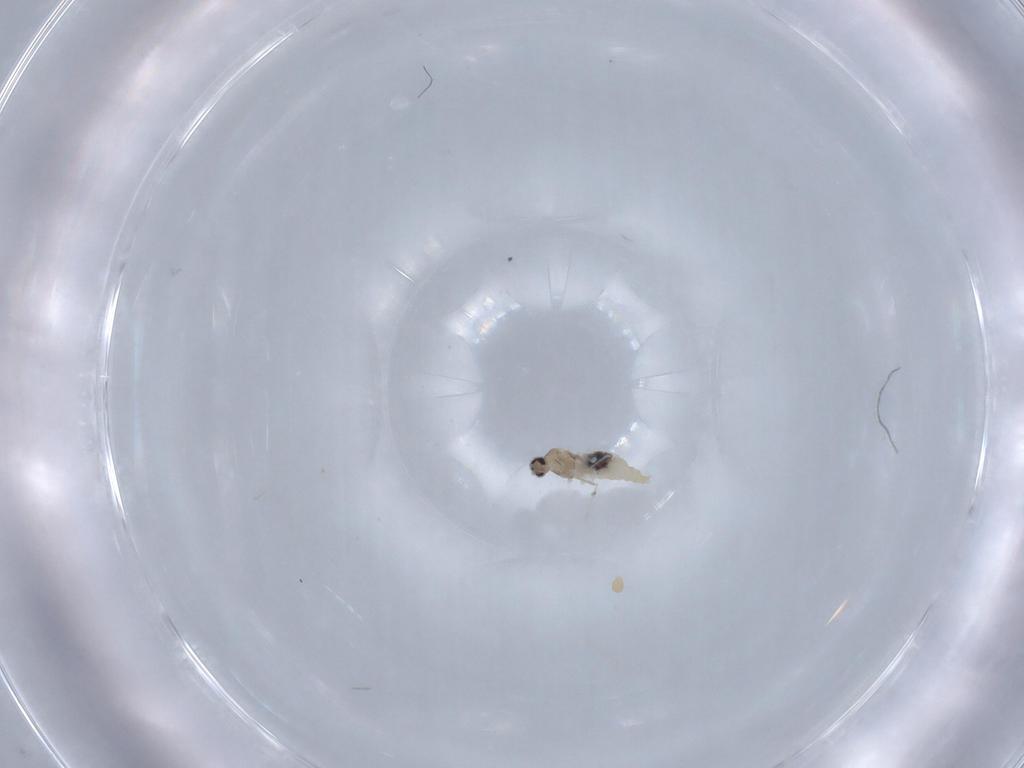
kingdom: Animalia
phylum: Arthropoda
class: Insecta
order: Diptera
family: Cecidomyiidae
